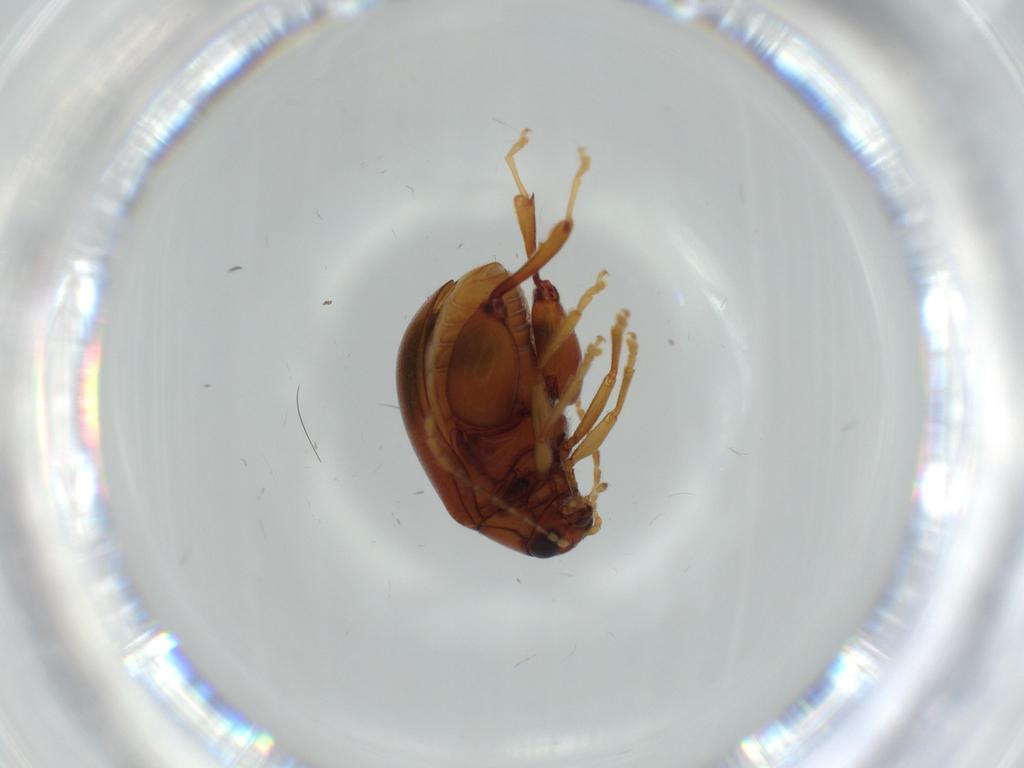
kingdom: Animalia
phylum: Arthropoda
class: Insecta
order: Coleoptera
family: Chrysomelidae
